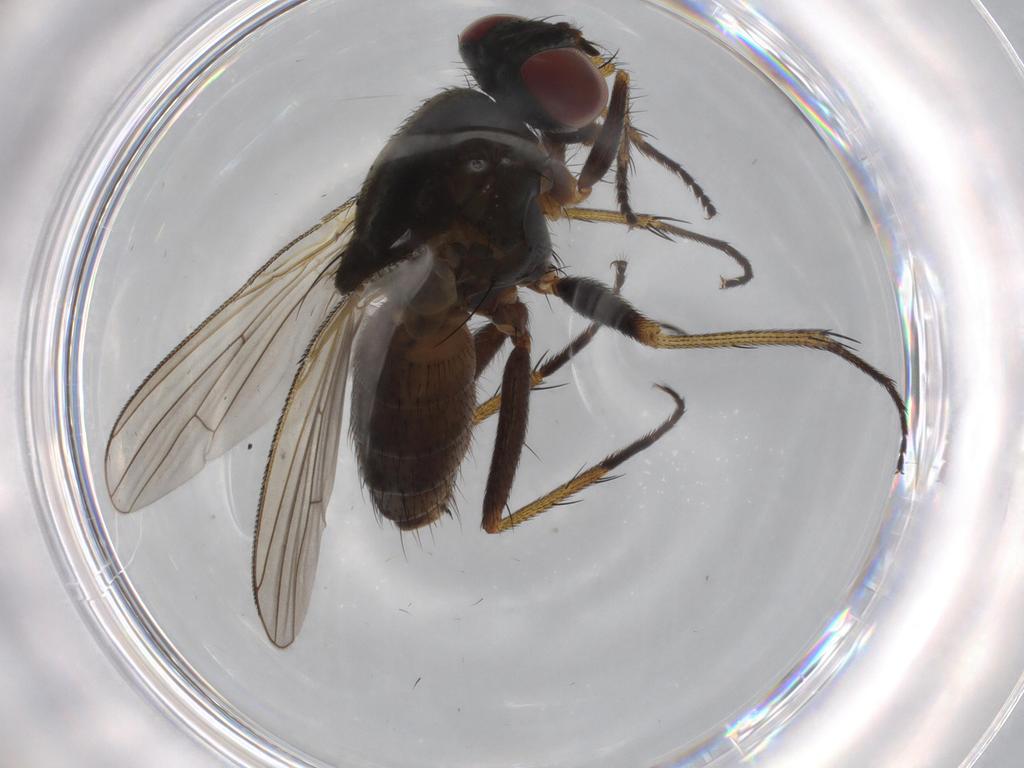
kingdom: Animalia
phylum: Arthropoda
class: Insecta
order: Diptera
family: Muscidae
